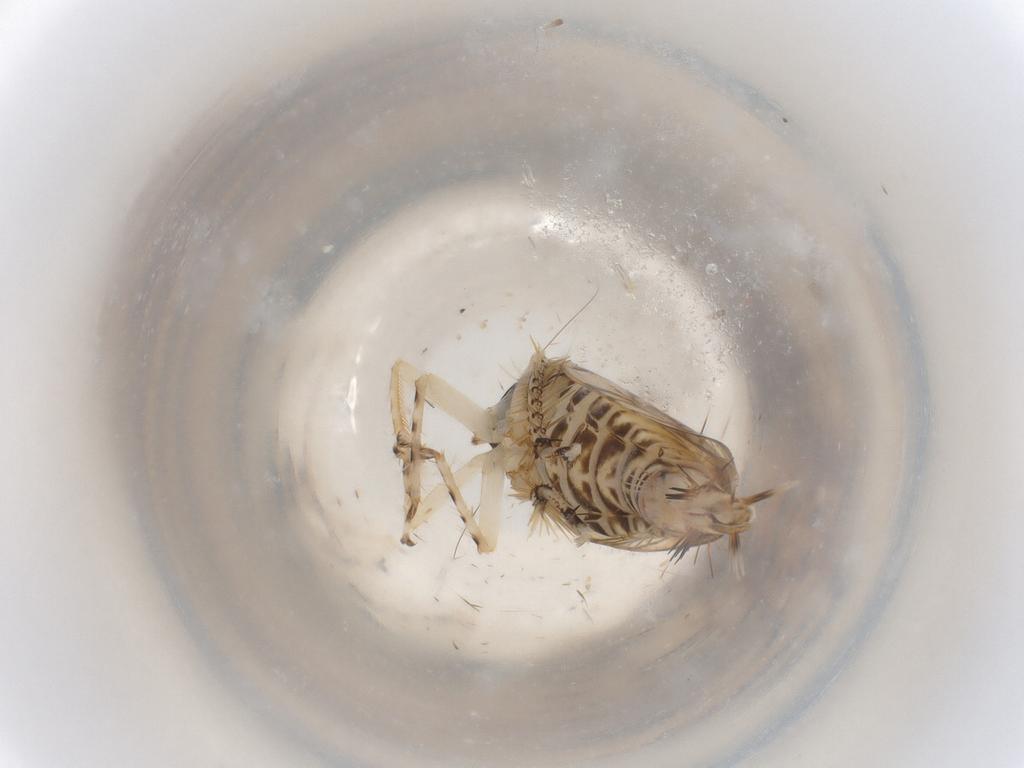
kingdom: Animalia
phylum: Arthropoda
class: Insecta
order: Hemiptera
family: Cicadellidae
